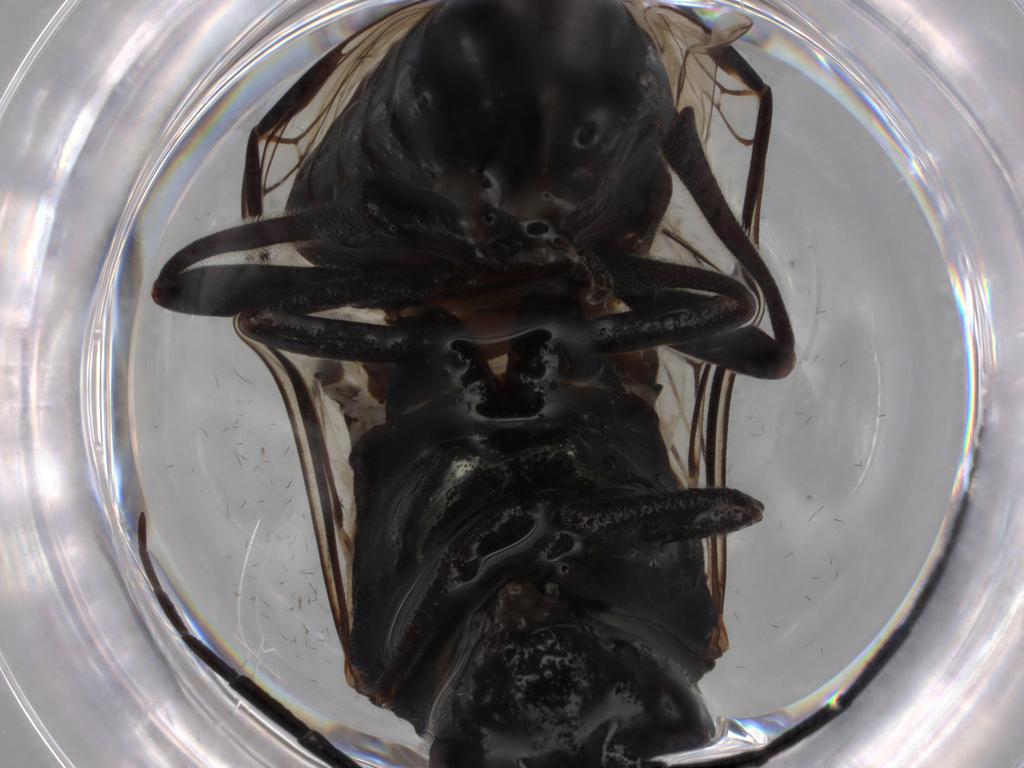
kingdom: Animalia
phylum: Arthropoda
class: Insecta
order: Hymenoptera
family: Tenthredinidae
